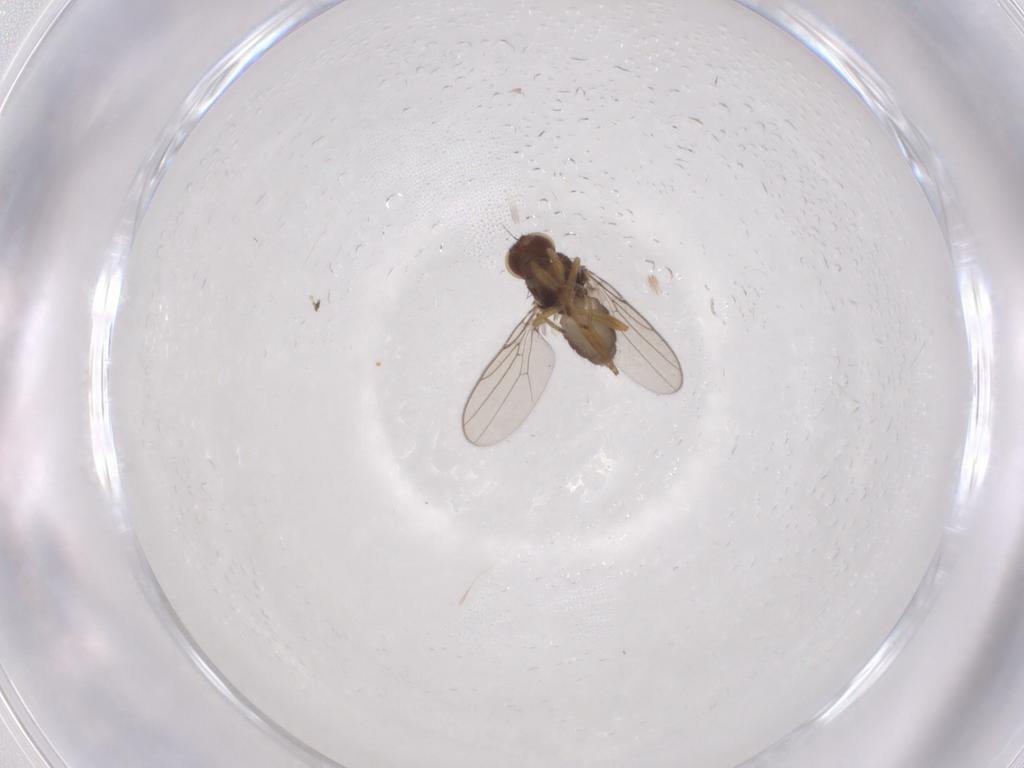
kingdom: Animalia
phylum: Arthropoda
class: Insecta
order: Diptera
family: Chloropidae
